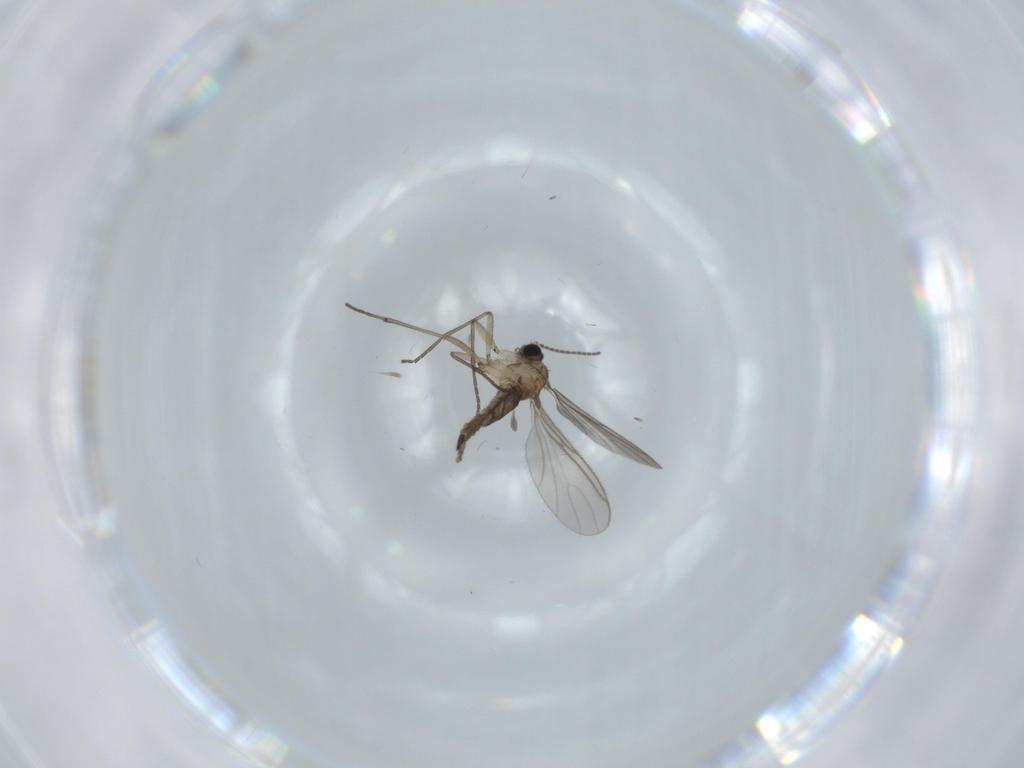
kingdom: Animalia
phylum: Arthropoda
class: Insecta
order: Diptera
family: Sciaridae
